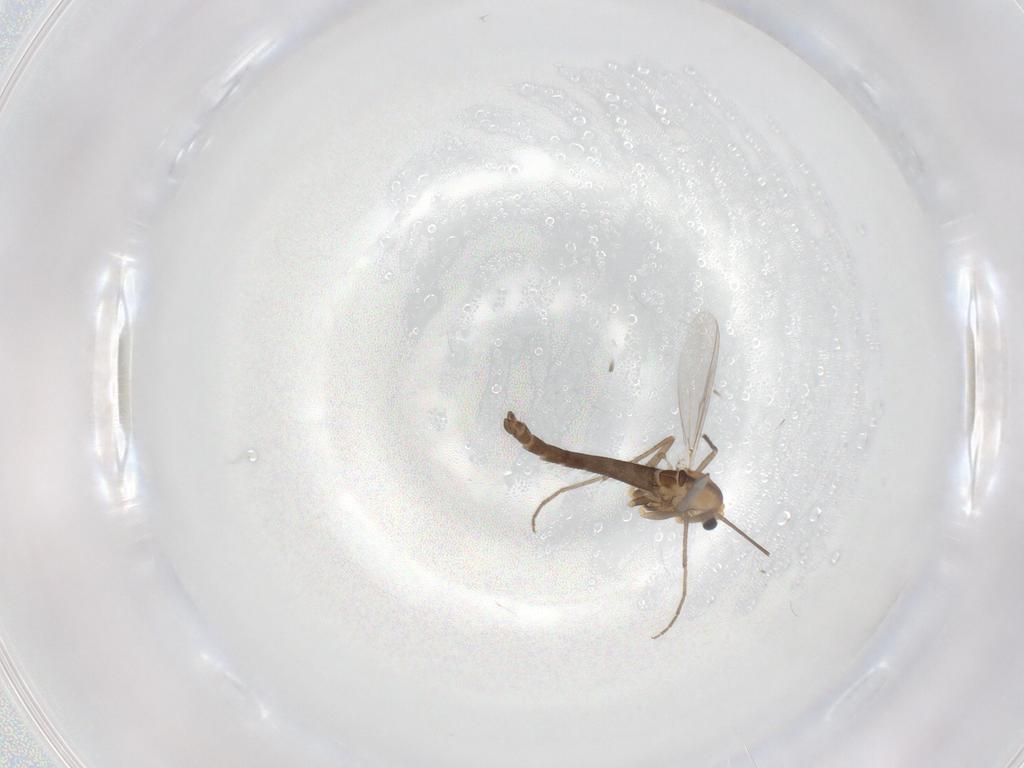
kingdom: Animalia
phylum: Arthropoda
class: Insecta
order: Diptera
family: Chironomidae
